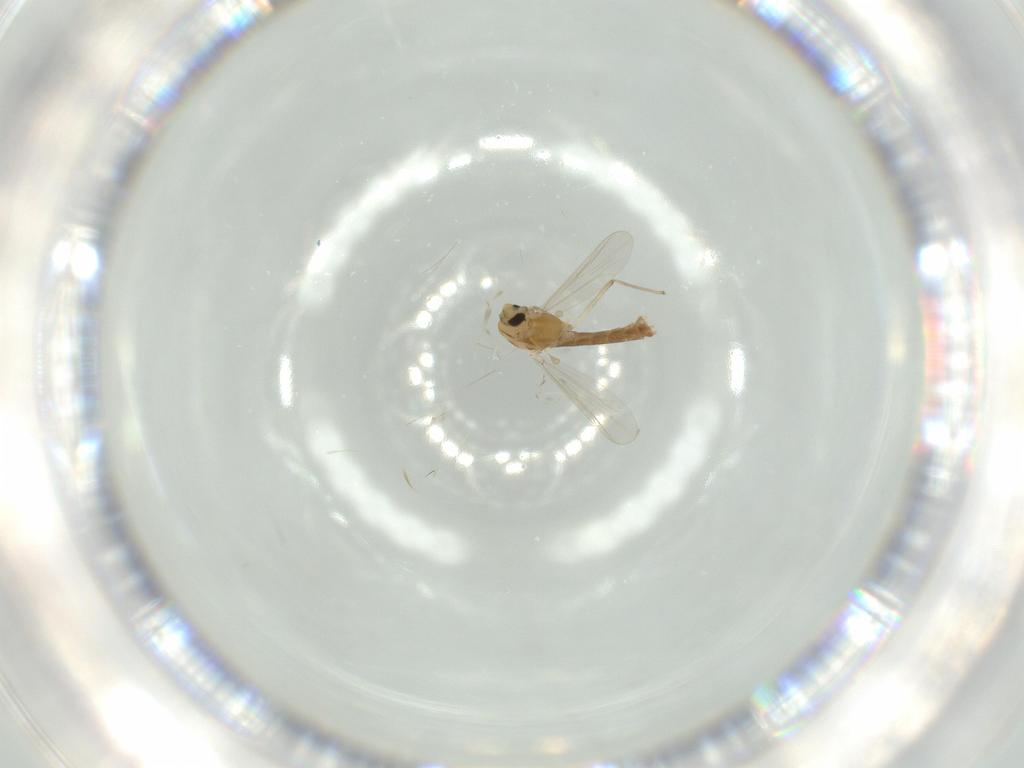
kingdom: Animalia
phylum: Arthropoda
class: Insecta
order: Diptera
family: Chironomidae
